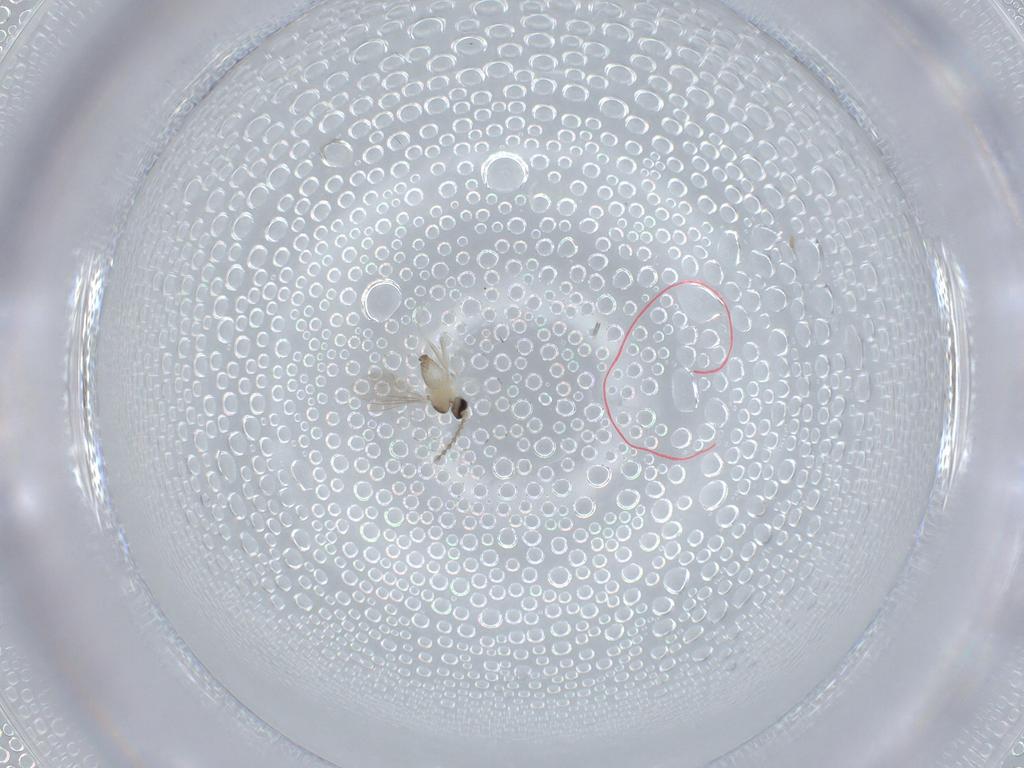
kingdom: Animalia
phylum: Arthropoda
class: Insecta
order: Diptera
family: Cecidomyiidae
